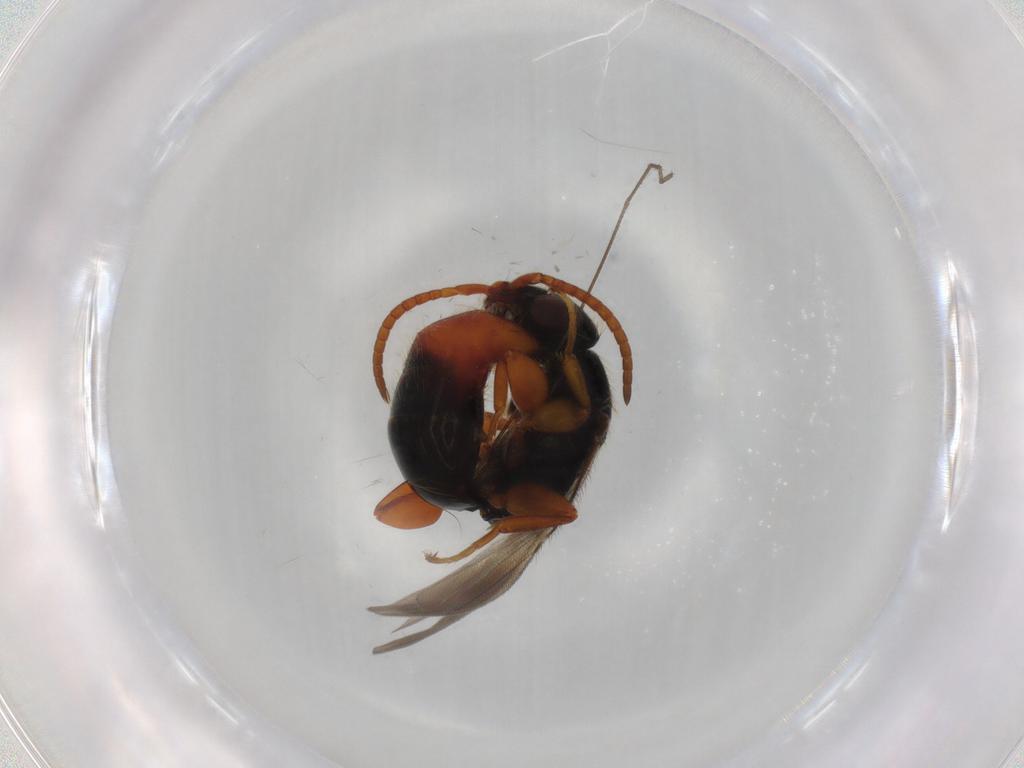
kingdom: Animalia
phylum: Arthropoda
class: Insecta
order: Hymenoptera
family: Bethylidae
